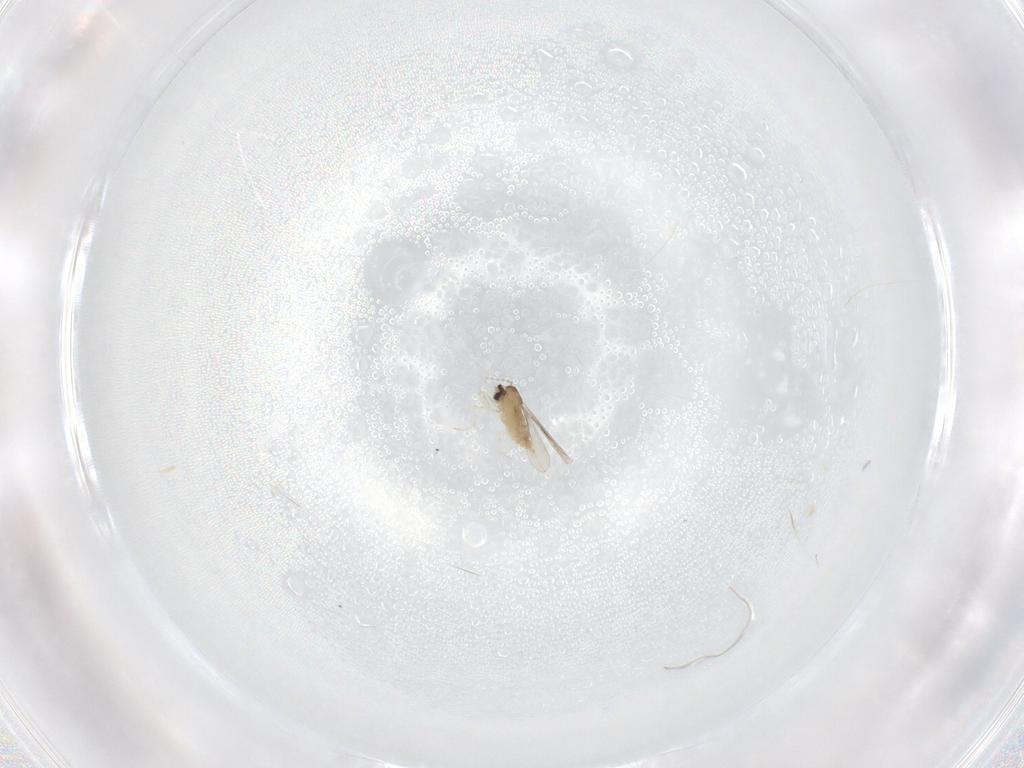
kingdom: Animalia
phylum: Arthropoda
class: Insecta
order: Diptera
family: Cecidomyiidae
